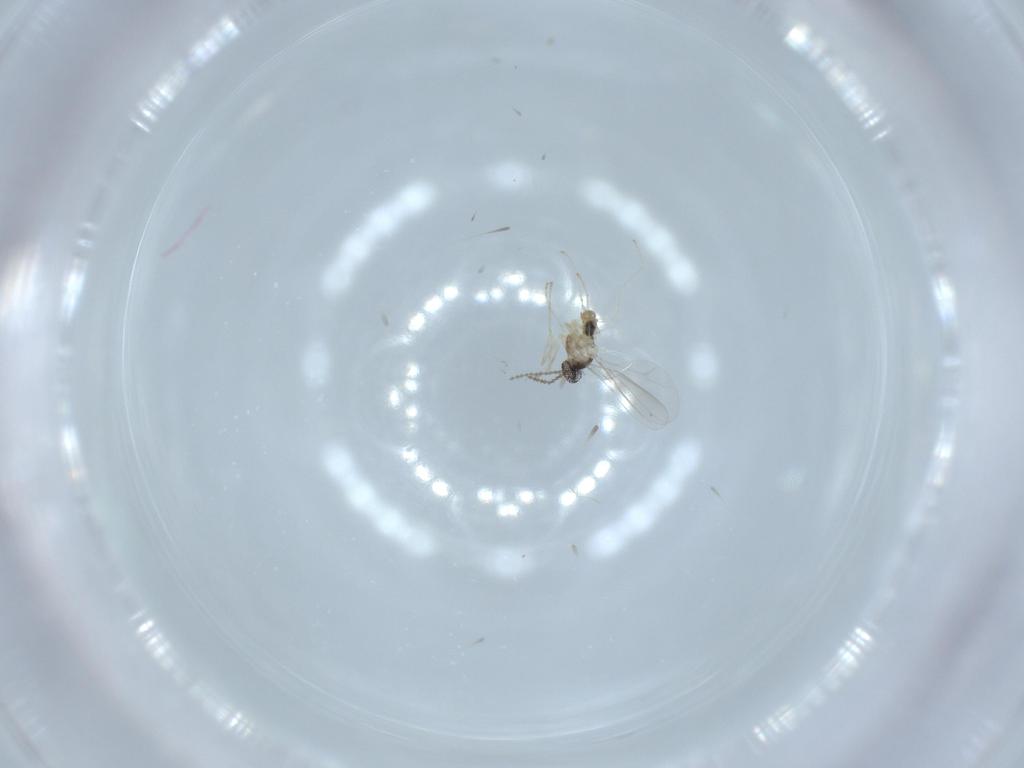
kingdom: Animalia
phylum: Arthropoda
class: Insecta
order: Diptera
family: Cecidomyiidae
